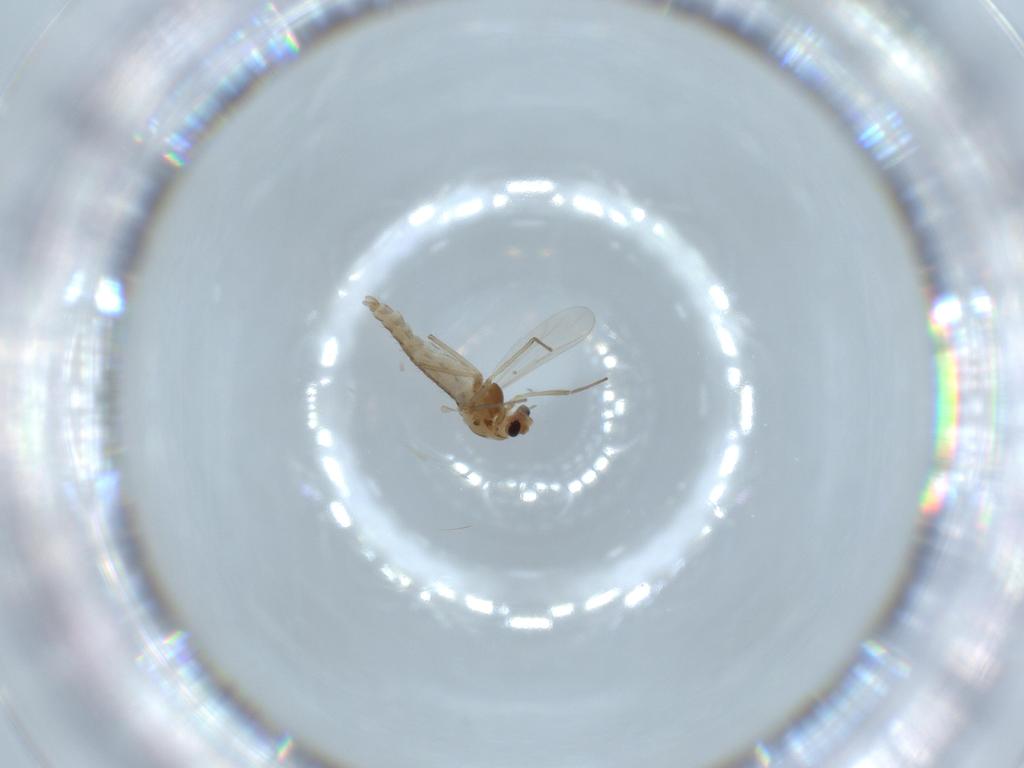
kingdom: Animalia
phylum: Arthropoda
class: Insecta
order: Diptera
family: Chironomidae
